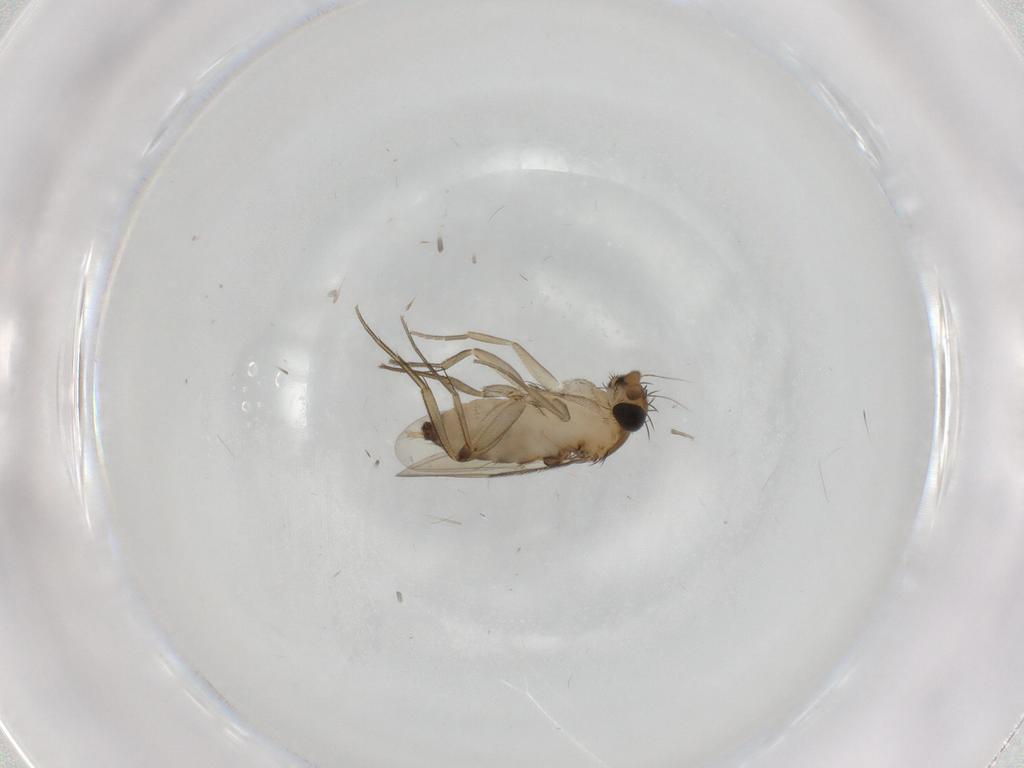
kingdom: Animalia
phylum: Arthropoda
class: Insecta
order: Diptera
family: Phoridae
